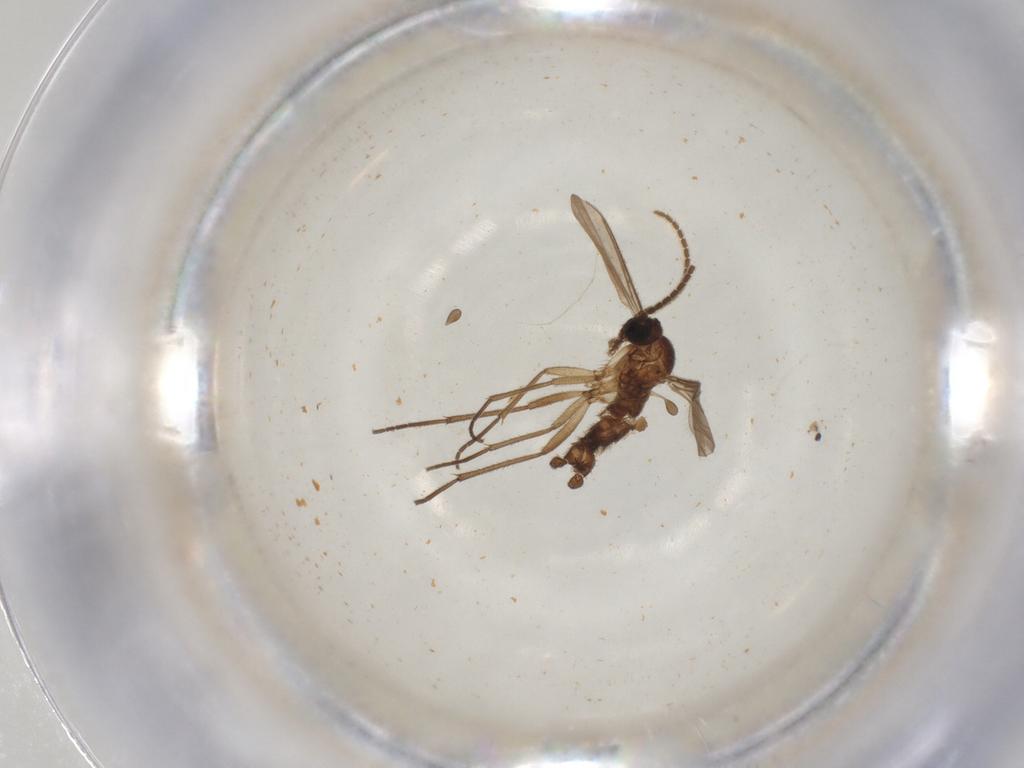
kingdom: Animalia
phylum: Arthropoda
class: Insecta
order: Diptera
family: Sciaridae
